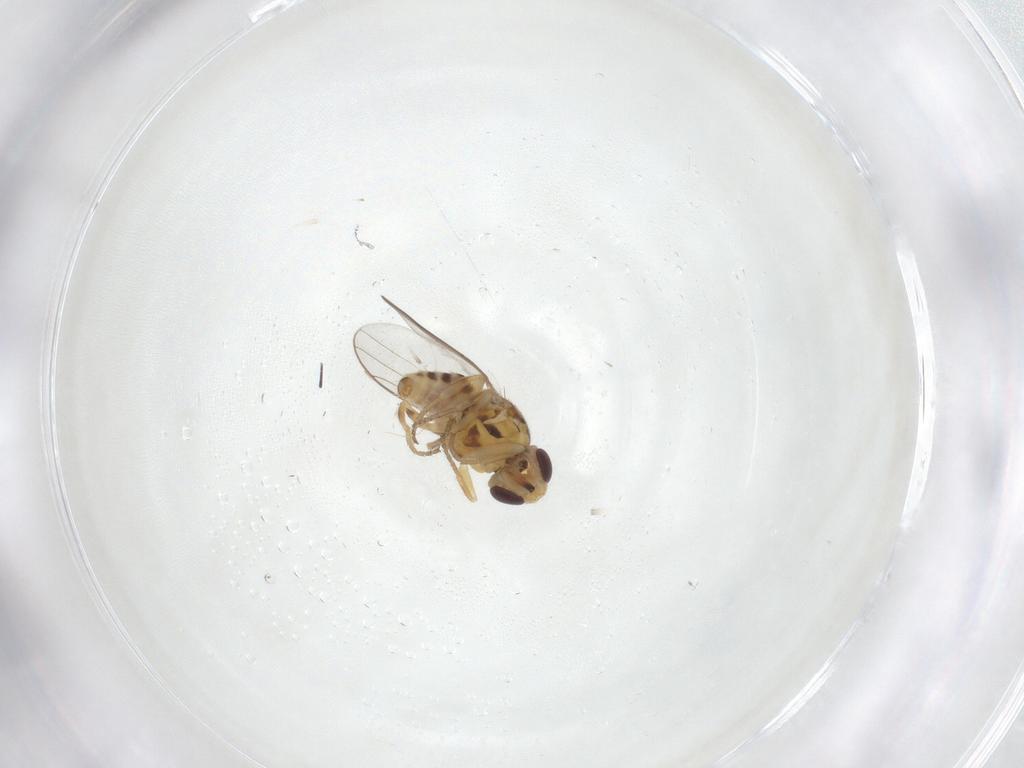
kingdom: Animalia
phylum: Arthropoda
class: Insecta
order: Diptera
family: Chloropidae
